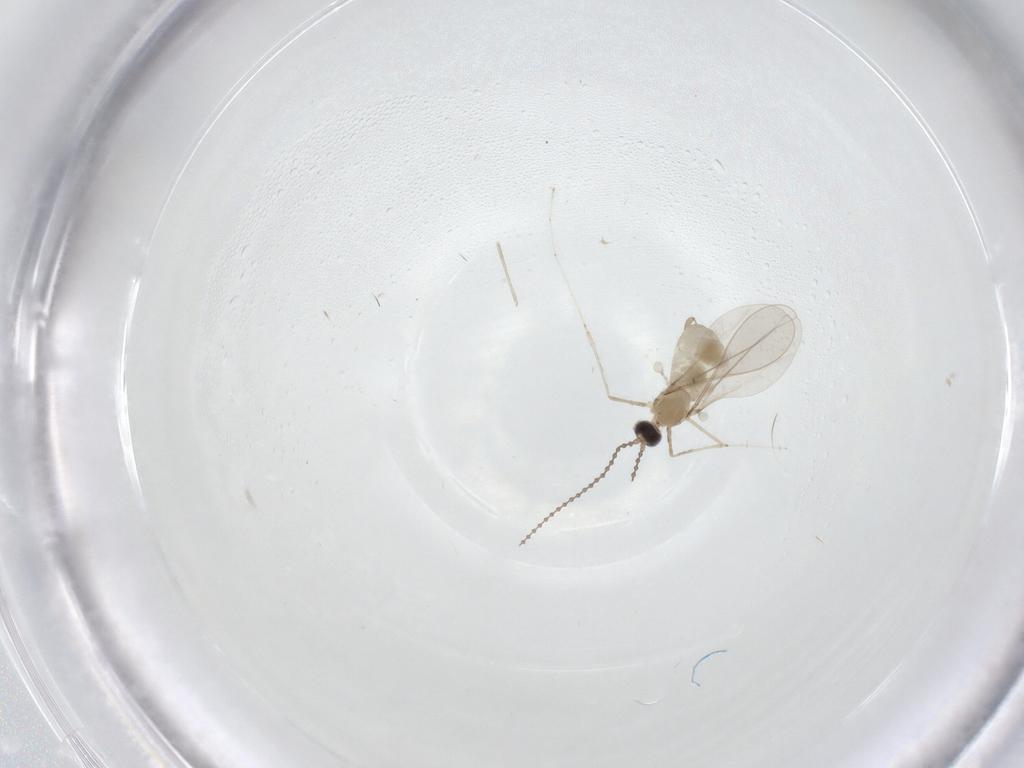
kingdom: Animalia
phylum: Arthropoda
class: Insecta
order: Diptera
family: Cecidomyiidae
